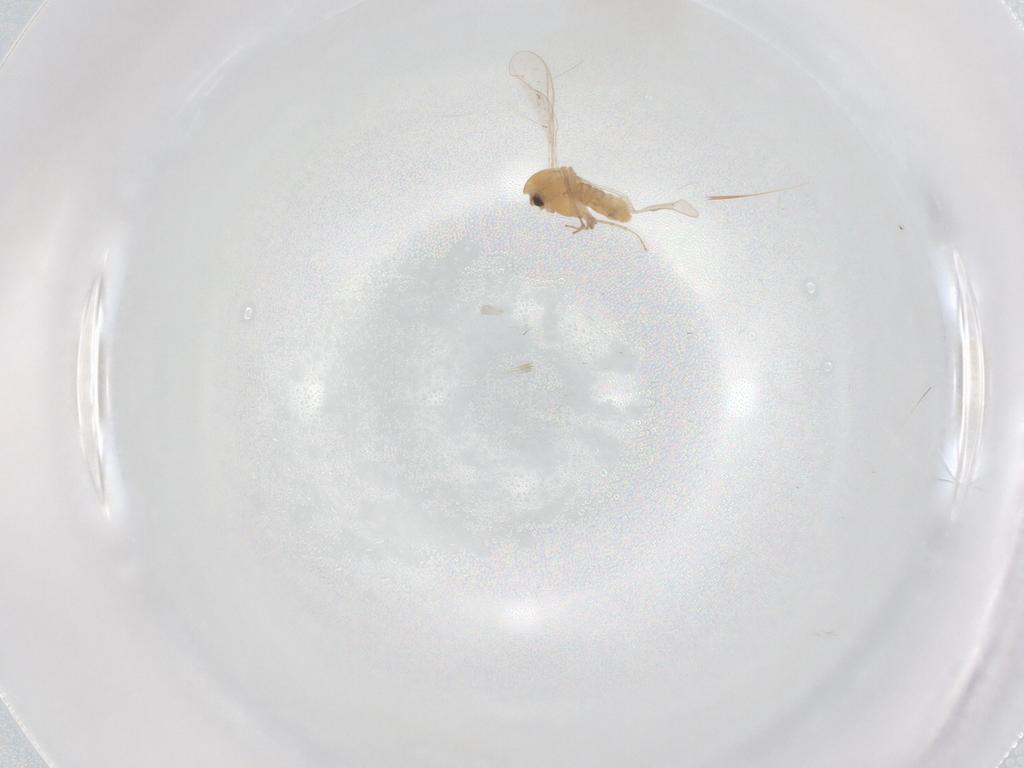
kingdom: Animalia
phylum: Arthropoda
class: Insecta
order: Diptera
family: Chironomidae
